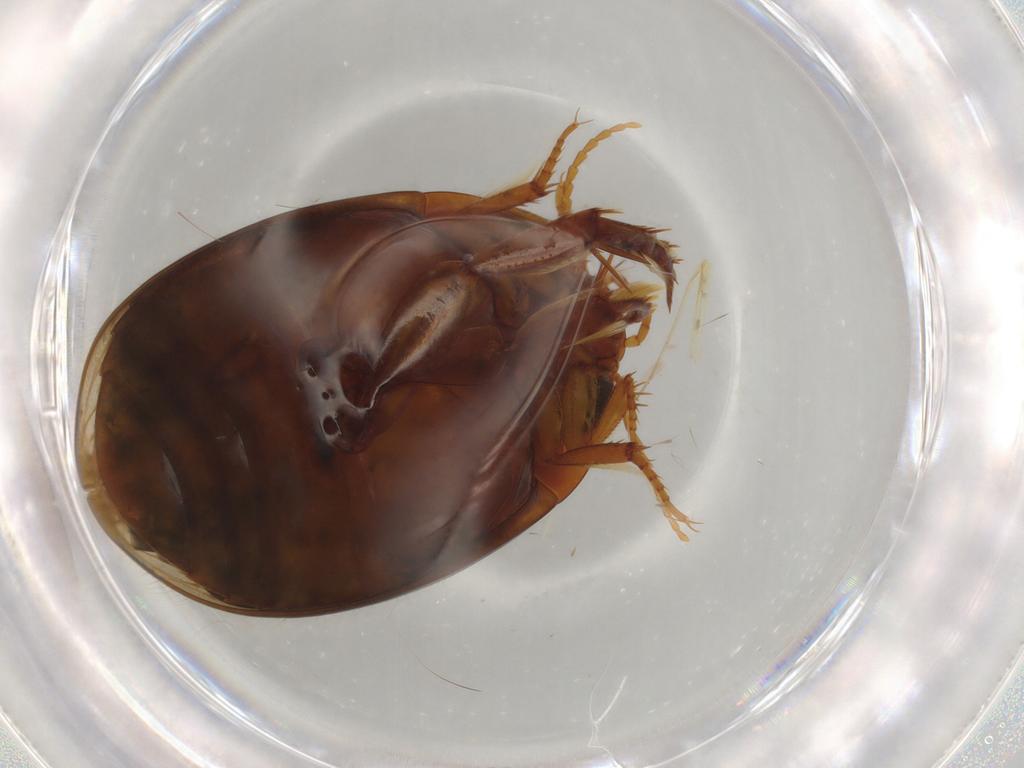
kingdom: Animalia
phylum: Arthropoda
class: Insecta
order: Coleoptera
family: Dytiscidae
